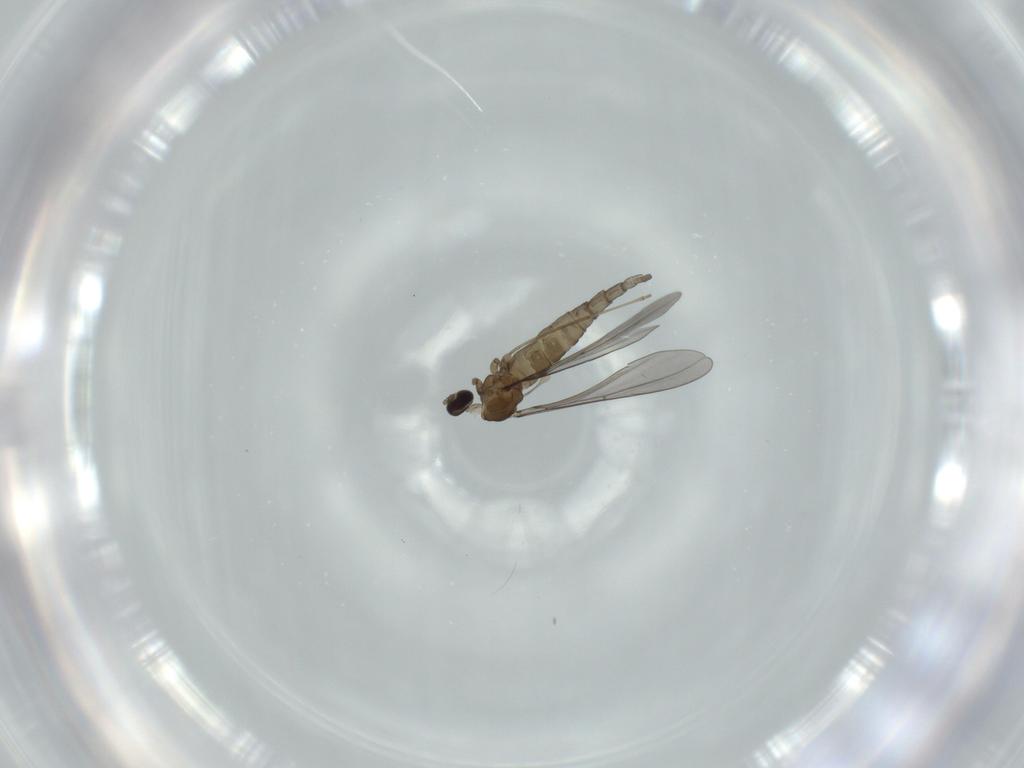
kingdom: Animalia
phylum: Arthropoda
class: Insecta
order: Diptera
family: Cecidomyiidae
